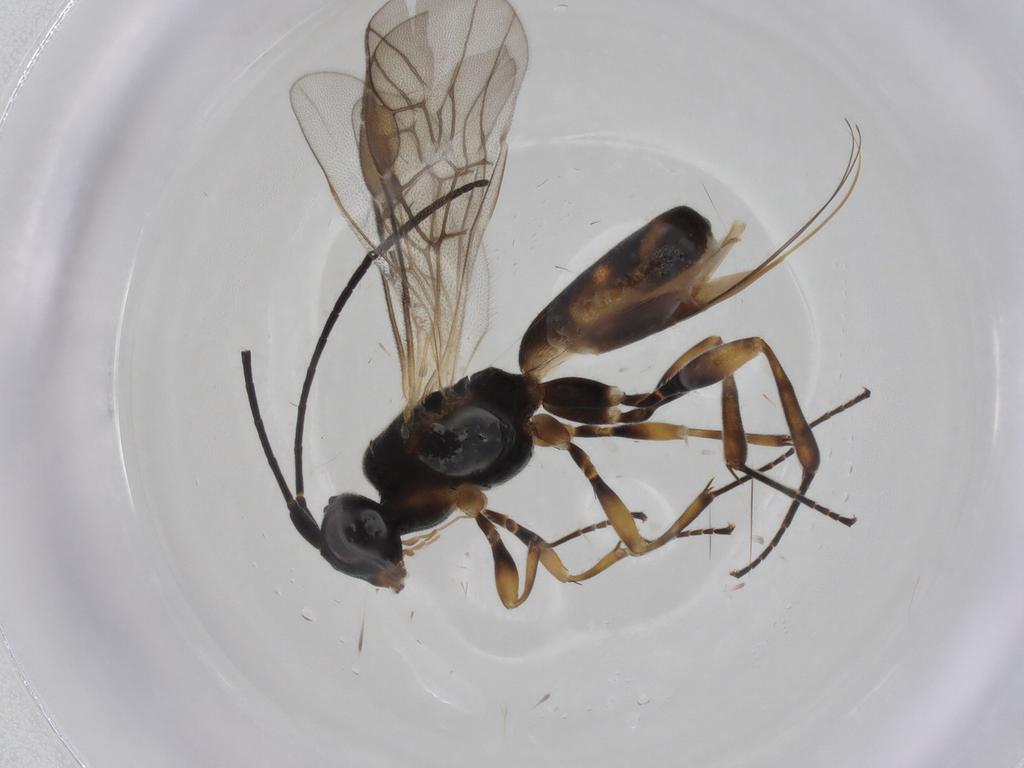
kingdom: Animalia
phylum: Arthropoda
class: Insecta
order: Hymenoptera
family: Braconidae
